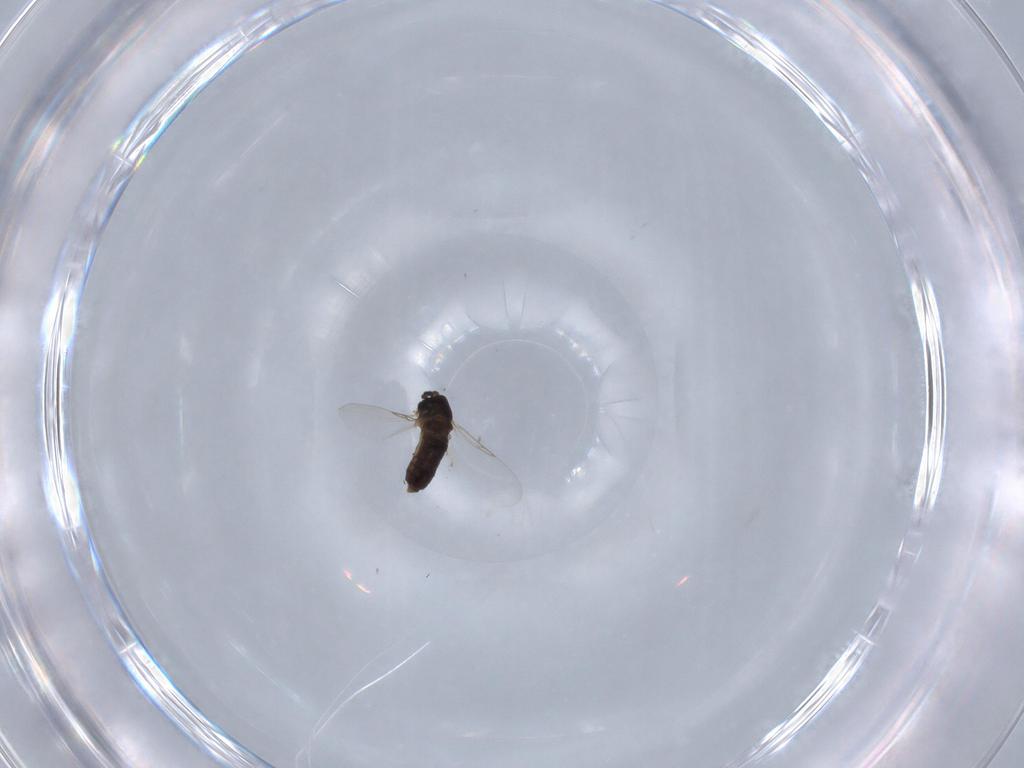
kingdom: Animalia
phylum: Arthropoda
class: Insecta
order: Diptera
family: Scatopsidae
